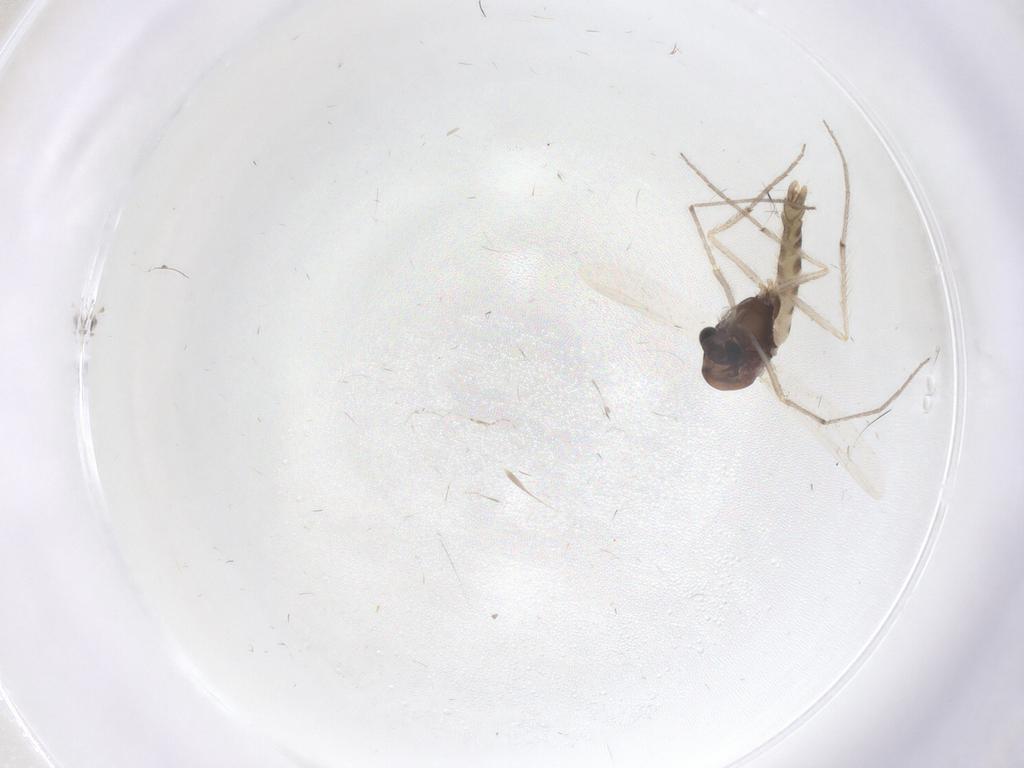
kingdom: Animalia
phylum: Arthropoda
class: Insecta
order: Diptera
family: Chironomidae
